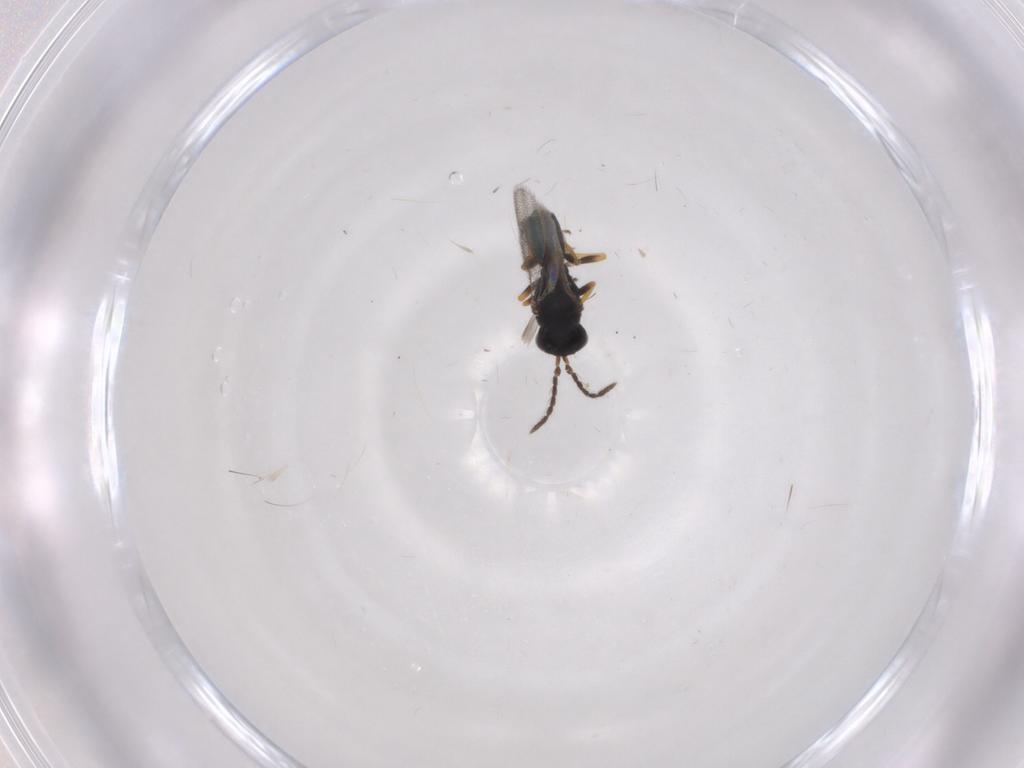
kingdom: Animalia
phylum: Arthropoda
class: Insecta
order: Hymenoptera
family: Eulophidae
